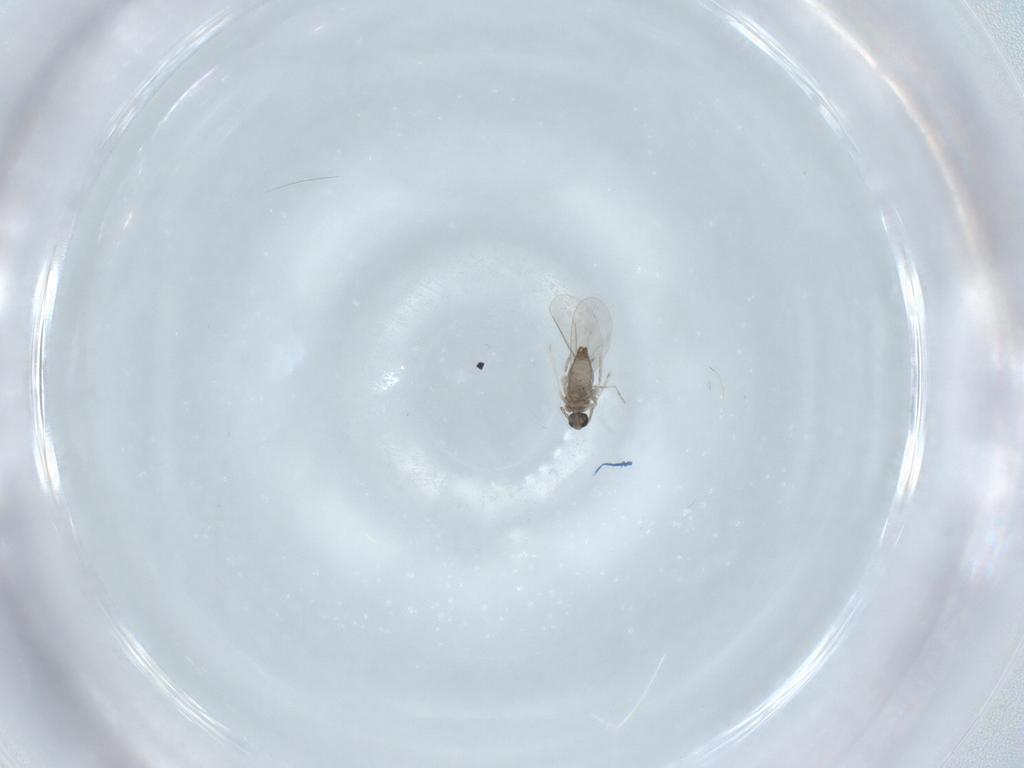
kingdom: Animalia
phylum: Arthropoda
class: Insecta
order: Diptera
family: Cecidomyiidae
